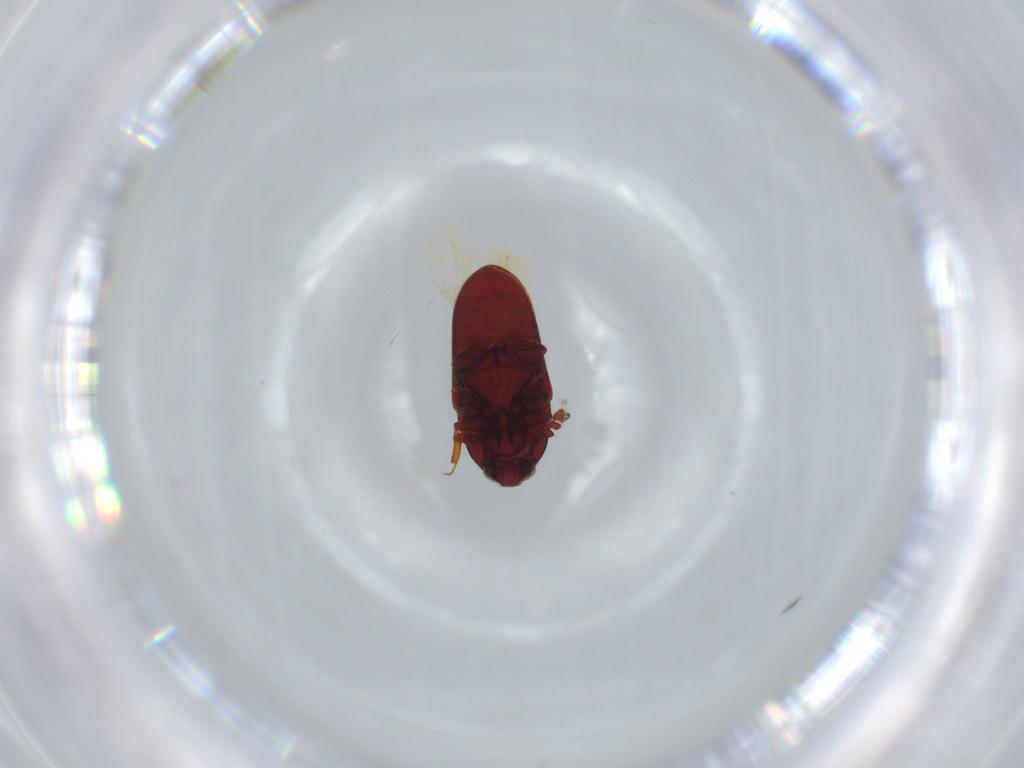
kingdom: Animalia
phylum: Arthropoda
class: Insecta
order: Coleoptera
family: Throscidae
